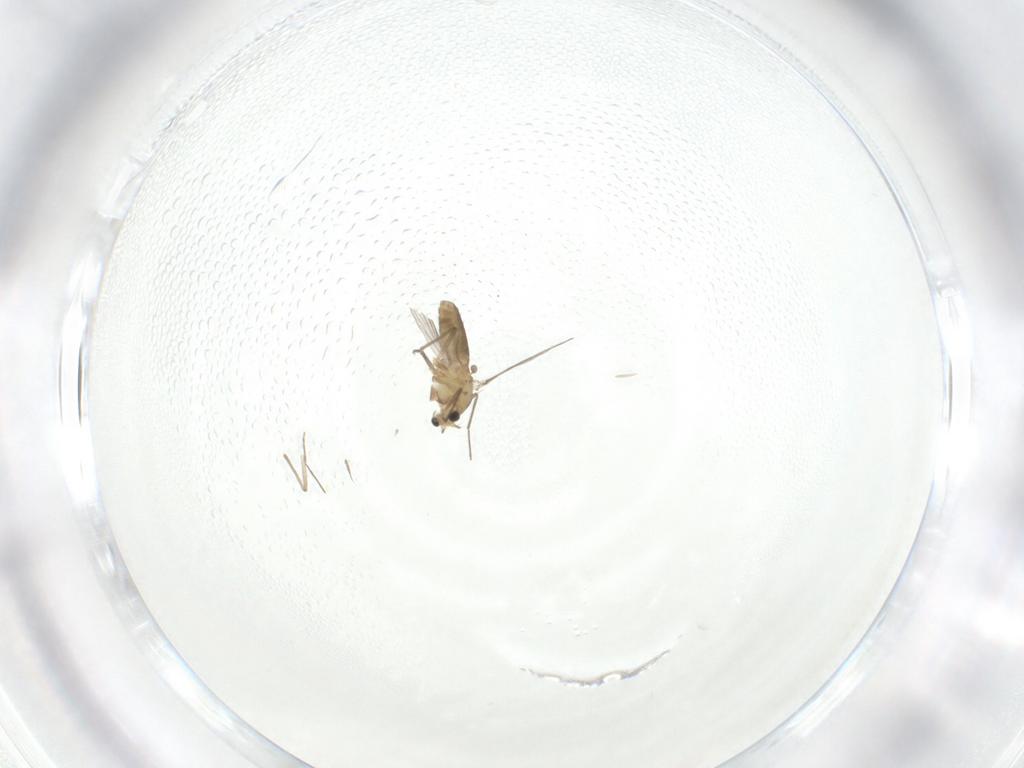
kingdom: Animalia
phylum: Arthropoda
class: Insecta
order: Diptera
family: Chironomidae
